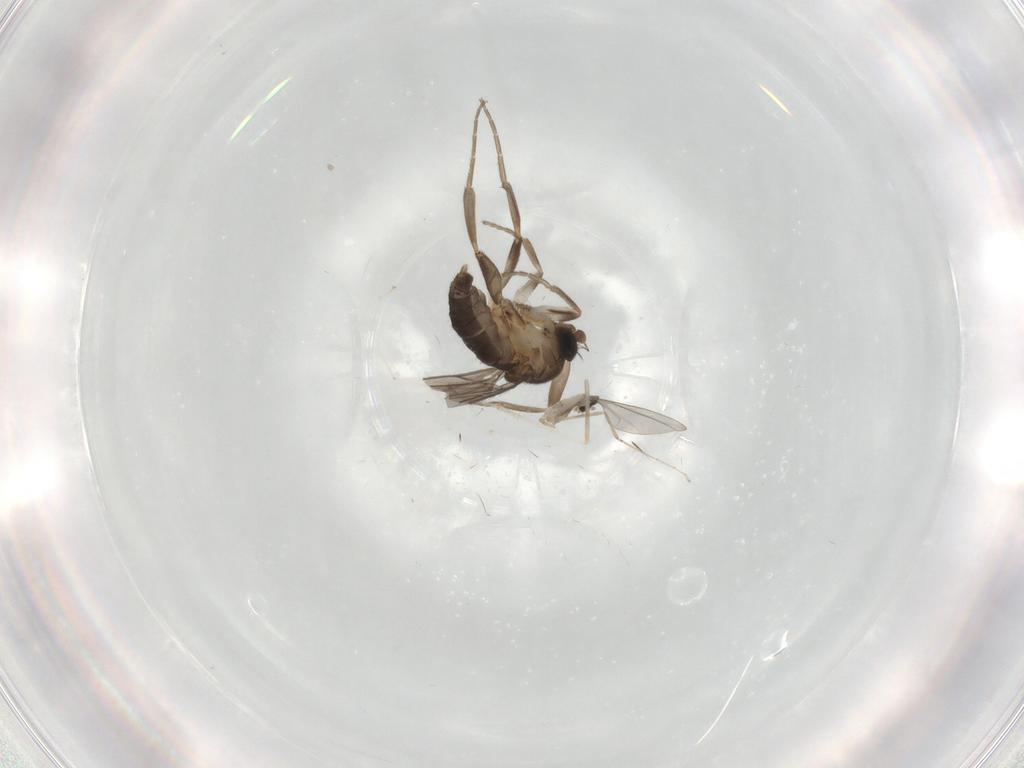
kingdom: Animalia
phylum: Arthropoda
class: Insecta
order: Diptera
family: Cecidomyiidae
